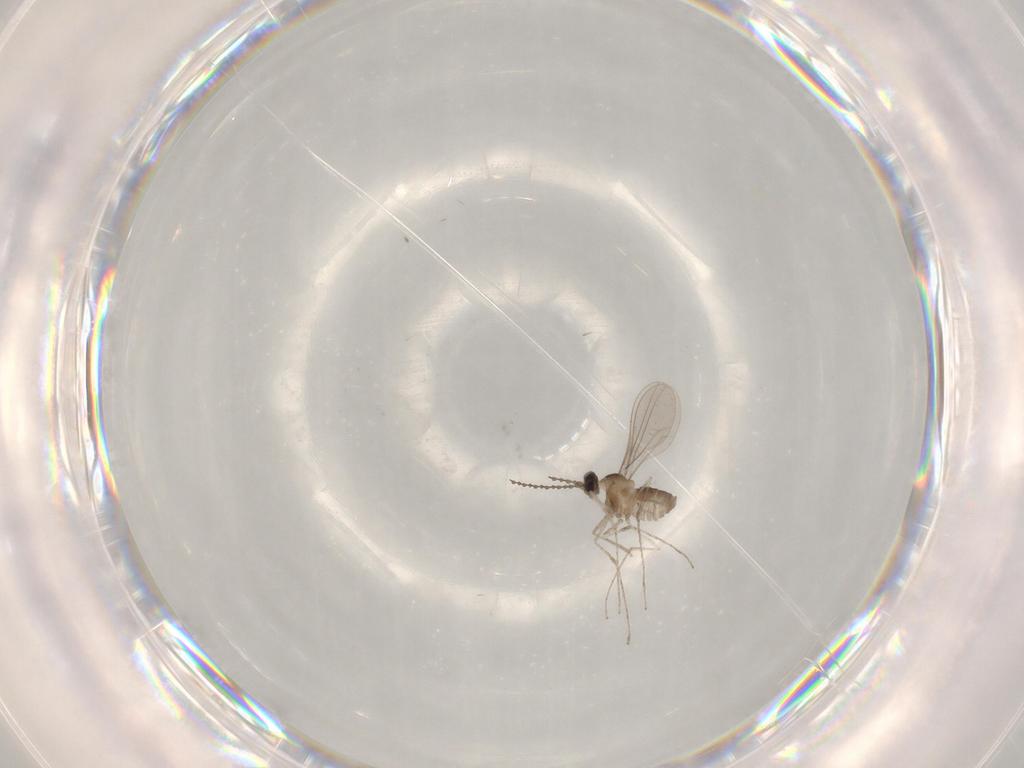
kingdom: Animalia
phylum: Arthropoda
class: Insecta
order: Diptera
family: Cecidomyiidae
